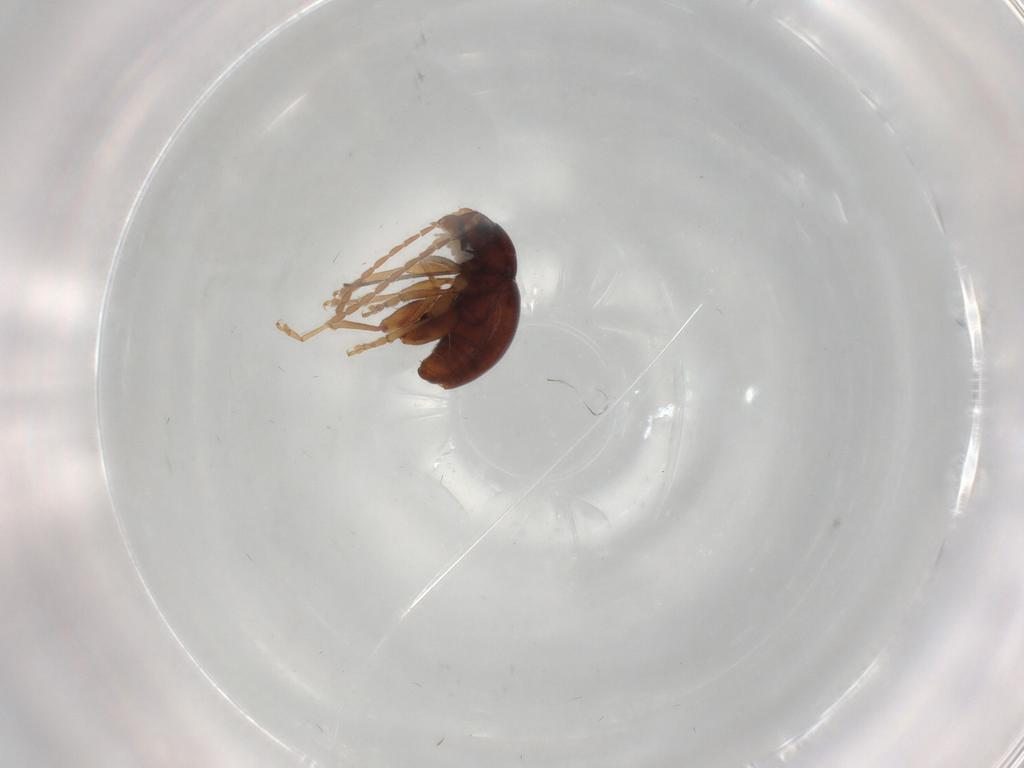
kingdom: Animalia
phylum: Arthropoda
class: Insecta
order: Coleoptera
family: Chrysomelidae
